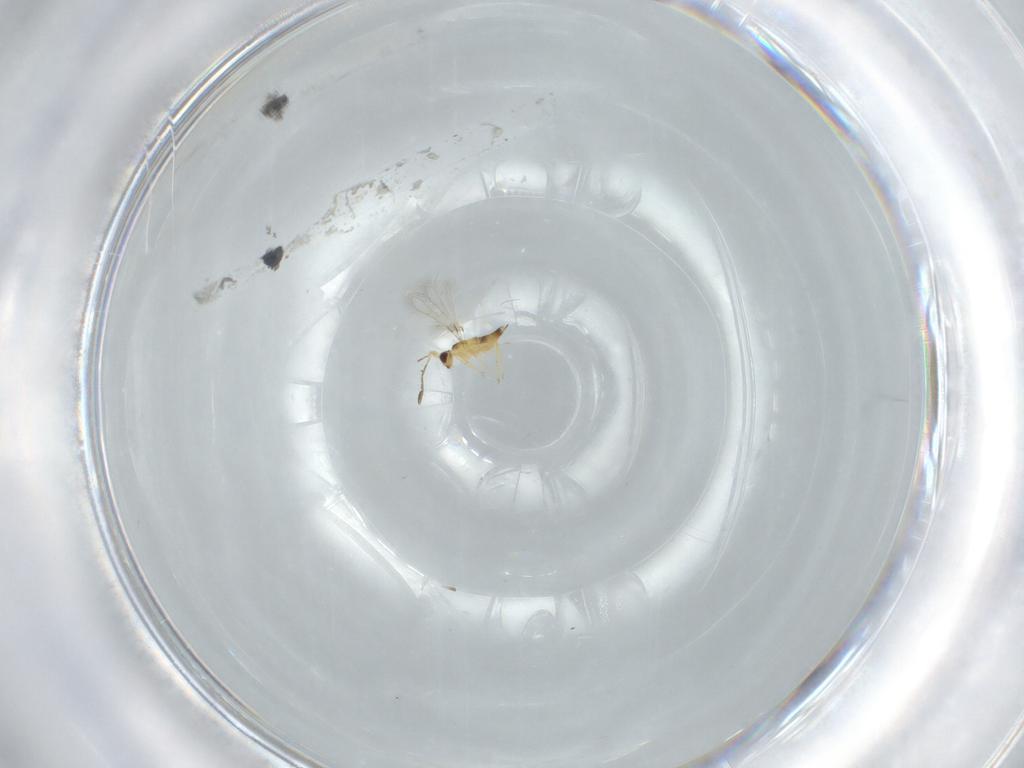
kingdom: Animalia
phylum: Arthropoda
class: Insecta
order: Hymenoptera
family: Mymaridae
